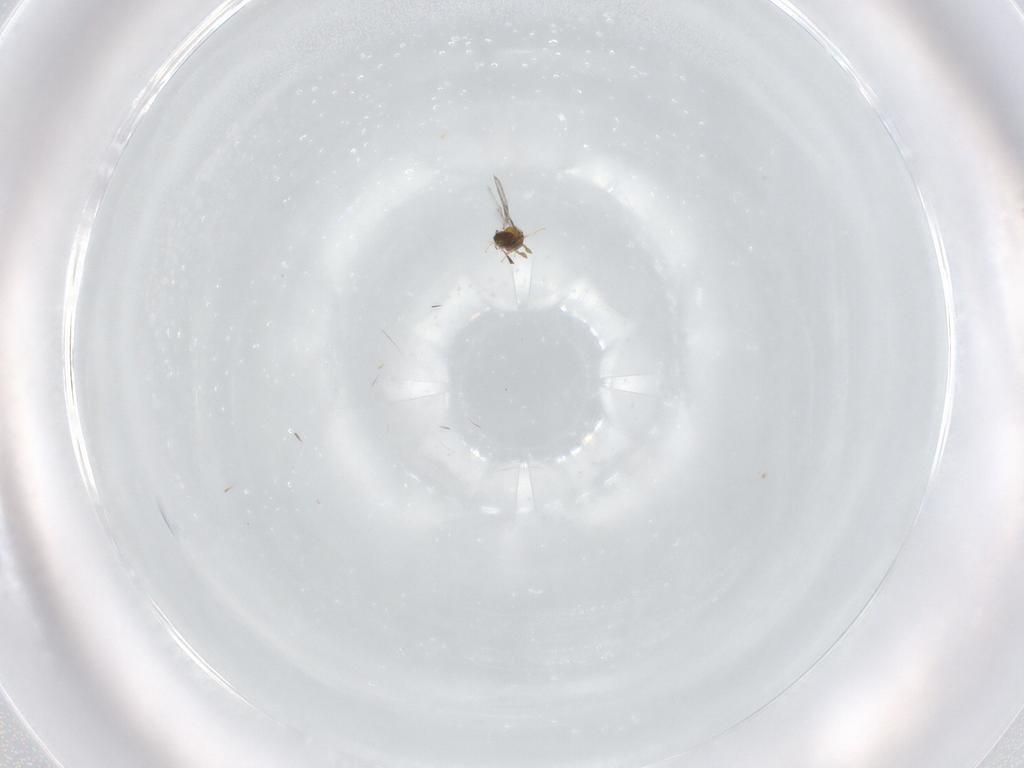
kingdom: Animalia
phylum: Arthropoda
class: Insecta
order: Hymenoptera
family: Trichogrammatidae
